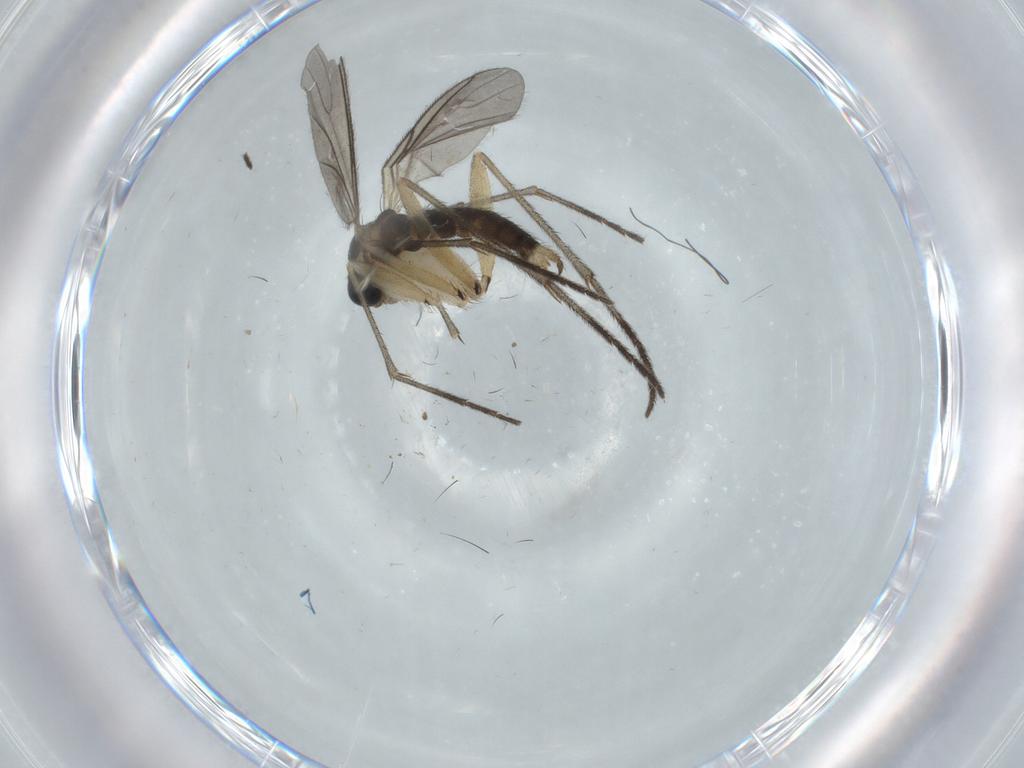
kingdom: Animalia
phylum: Arthropoda
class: Insecta
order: Diptera
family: Sciaridae
